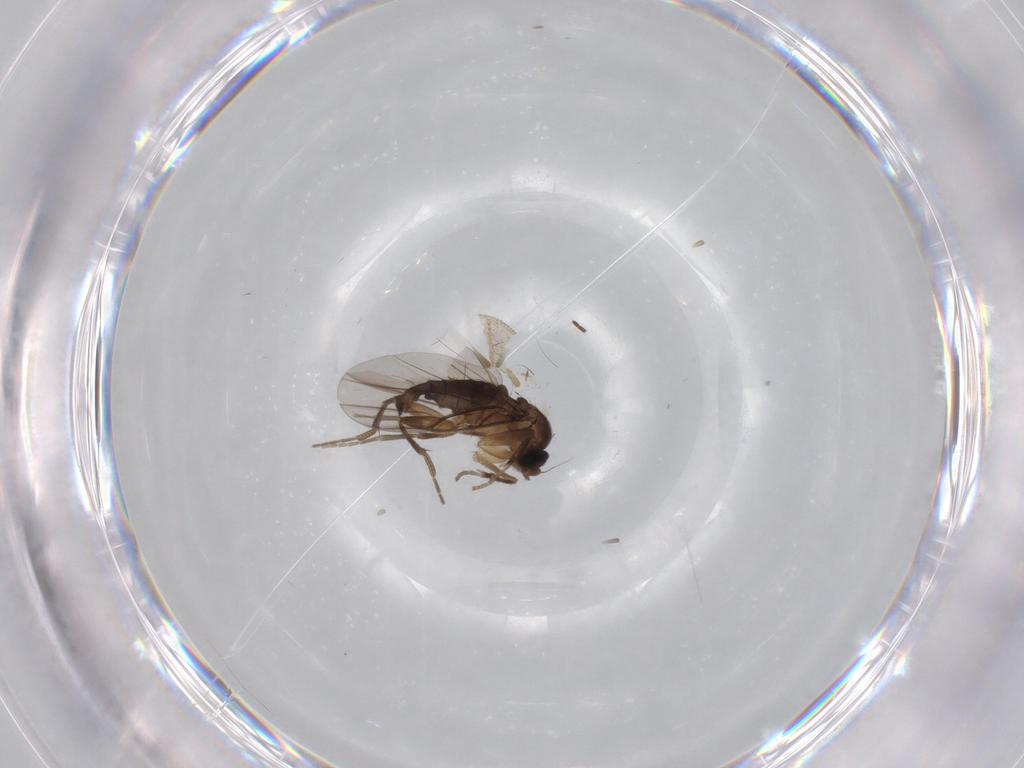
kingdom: Animalia
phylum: Arthropoda
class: Insecta
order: Diptera
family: Phoridae
